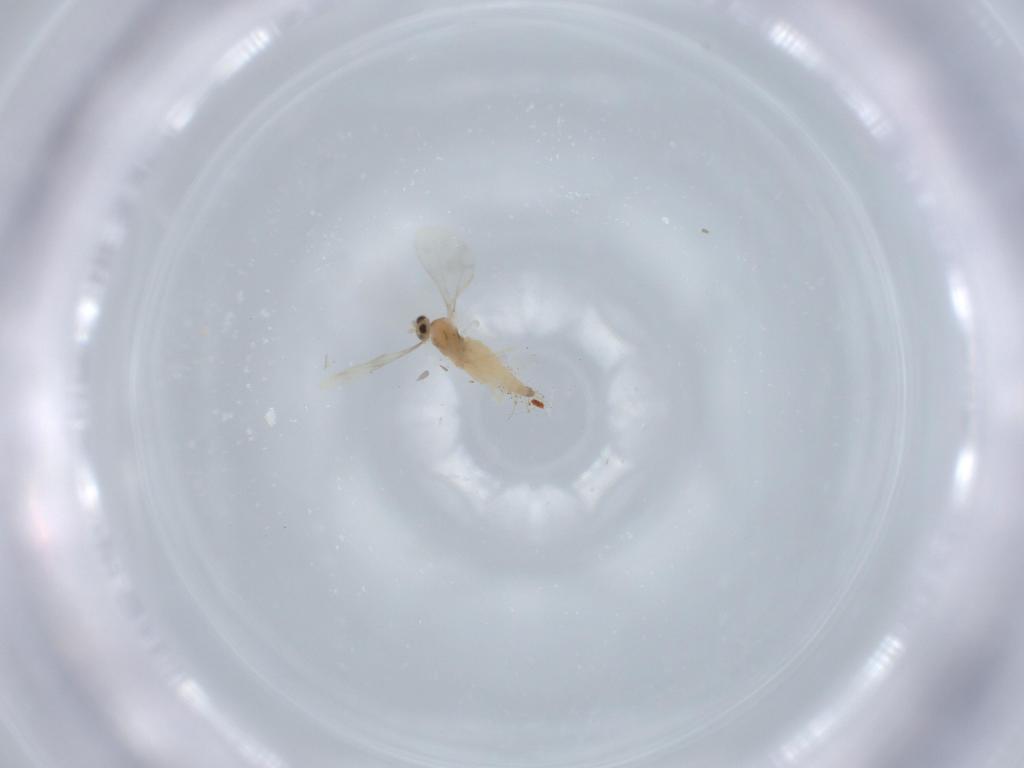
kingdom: Animalia
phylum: Arthropoda
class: Insecta
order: Diptera
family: Cecidomyiidae
